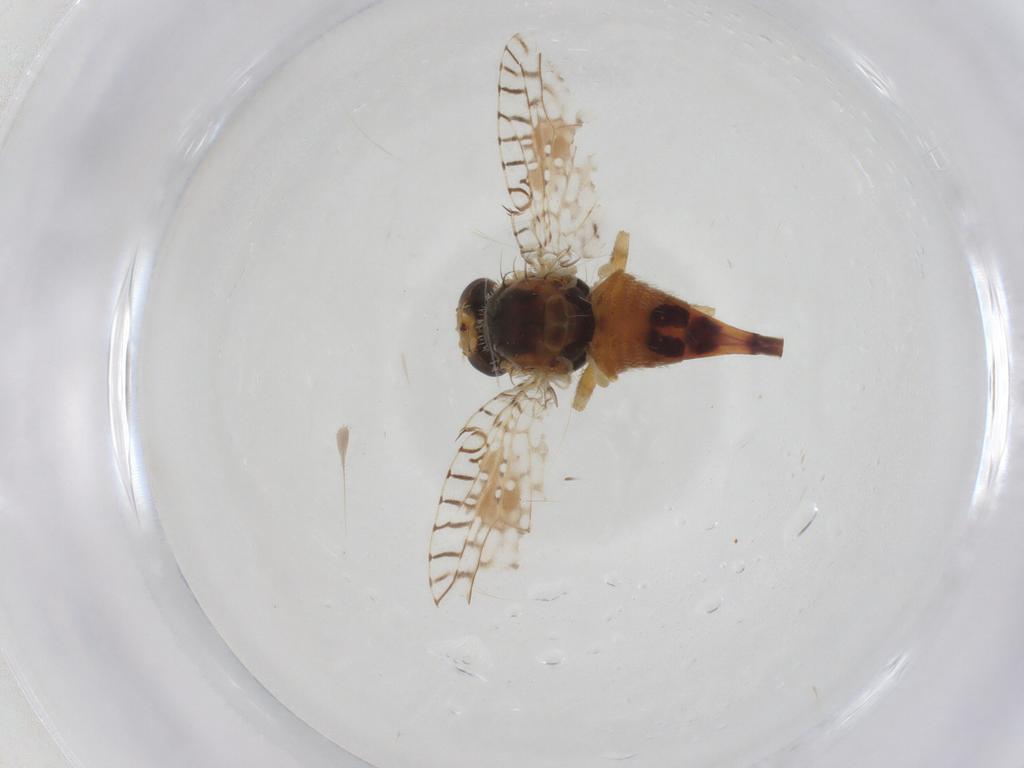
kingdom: Animalia
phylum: Arthropoda
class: Insecta
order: Diptera
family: Tephritidae
